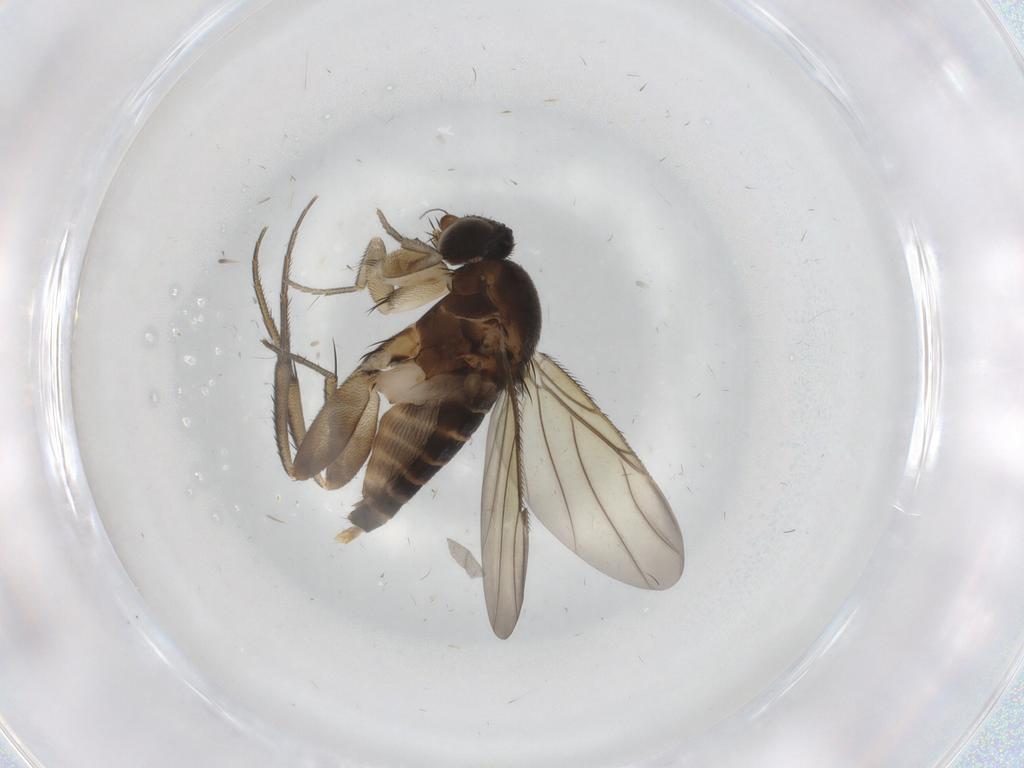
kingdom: Animalia
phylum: Arthropoda
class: Insecta
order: Diptera
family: Phoridae
